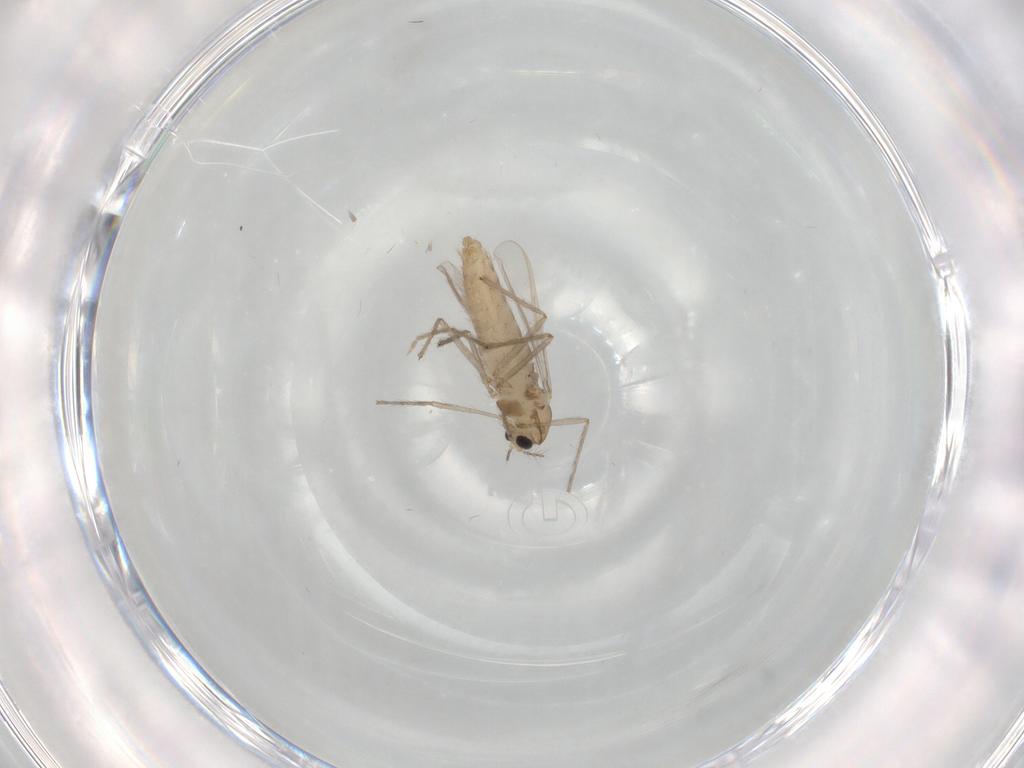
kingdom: Animalia
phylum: Arthropoda
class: Insecta
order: Diptera
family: Chironomidae
